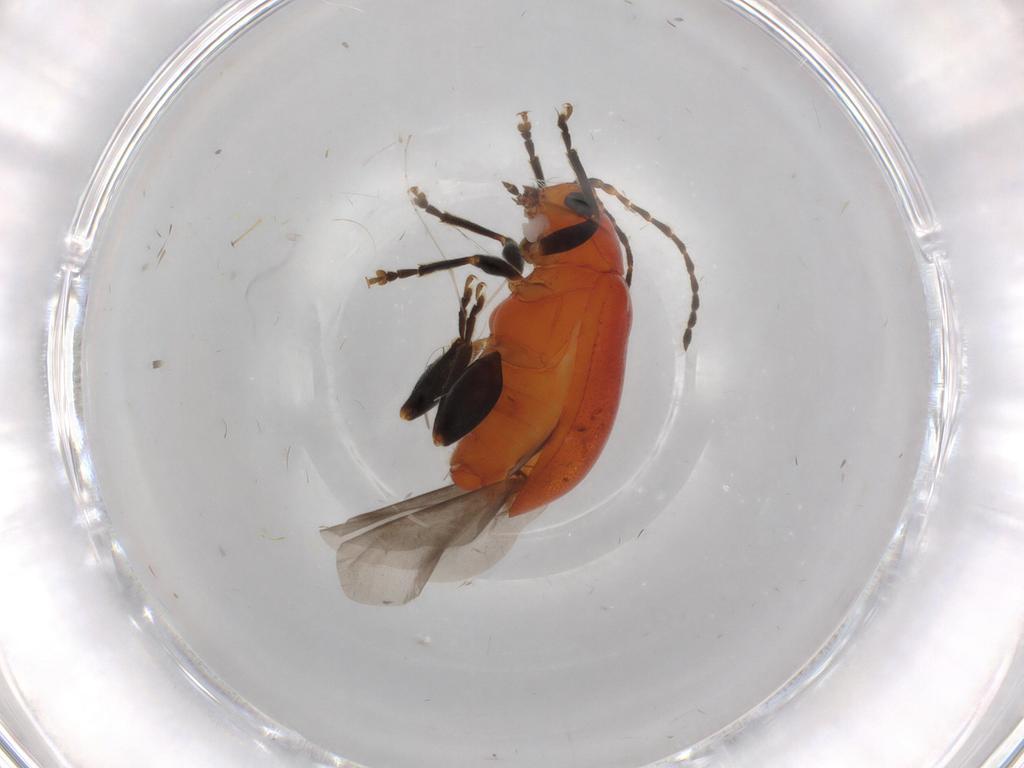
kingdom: Animalia
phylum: Arthropoda
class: Insecta
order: Coleoptera
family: Chrysomelidae
